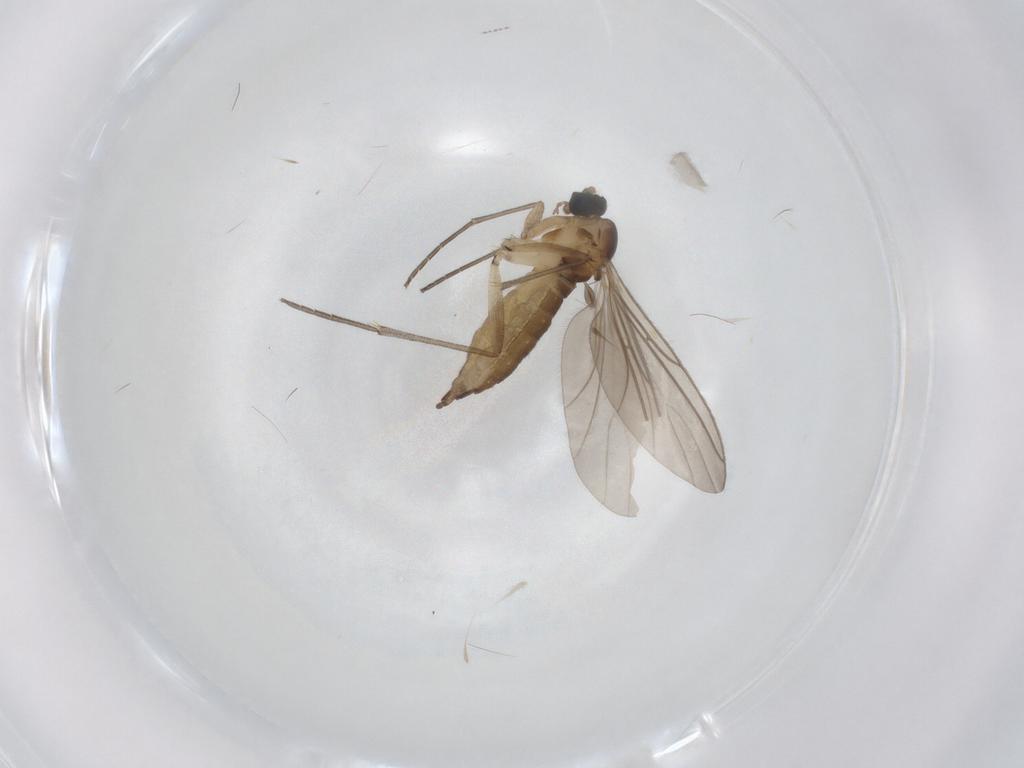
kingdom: Animalia
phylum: Arthropoda
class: Insecta
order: Diptera
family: Sciaridae
